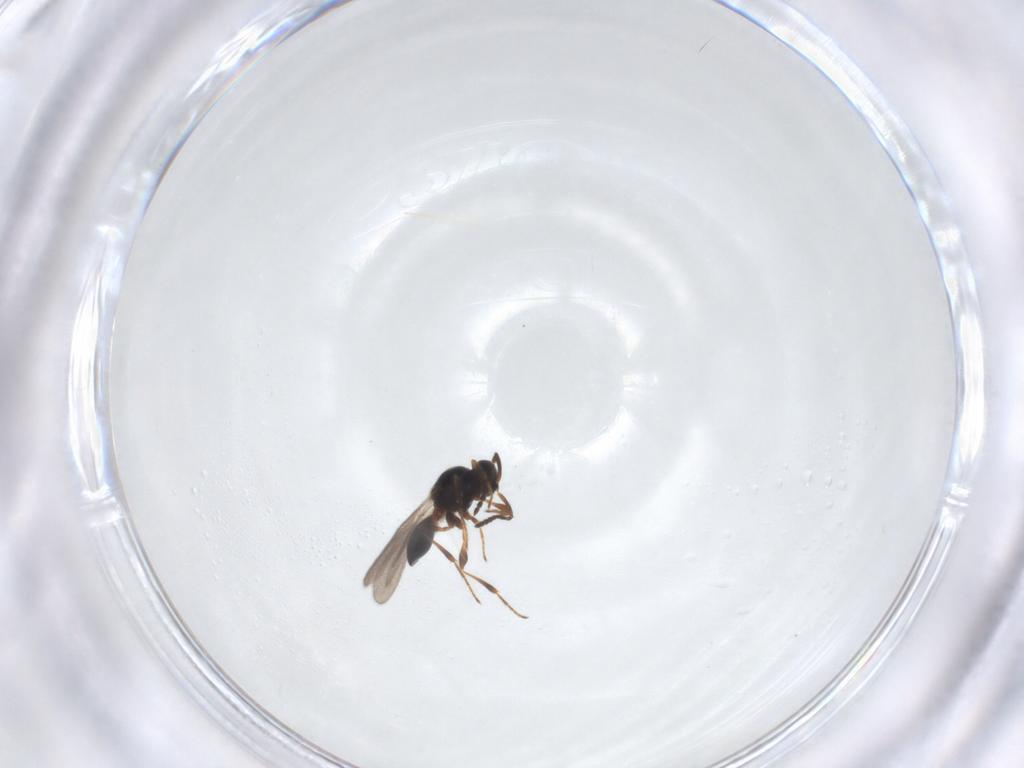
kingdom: Animalia
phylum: Arthropoda
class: Insecta
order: Hymenoptera
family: Platygastridae
